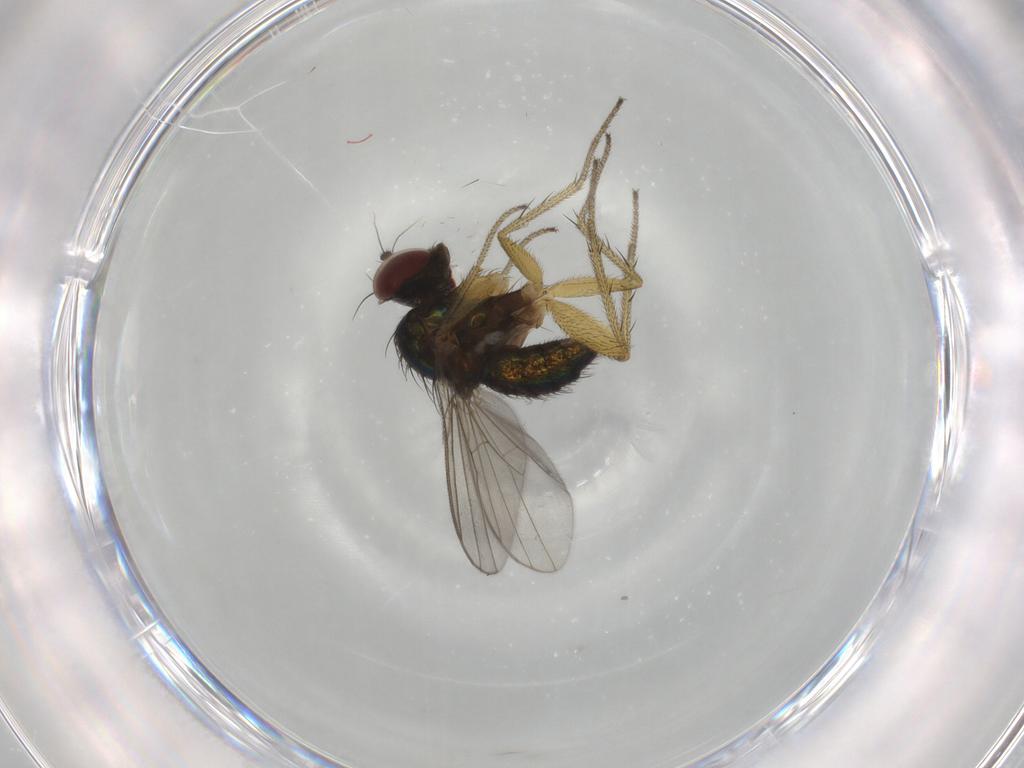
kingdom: Animalia
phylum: Arthropoda
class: Insecta
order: Diptera
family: Dolichopodidae
